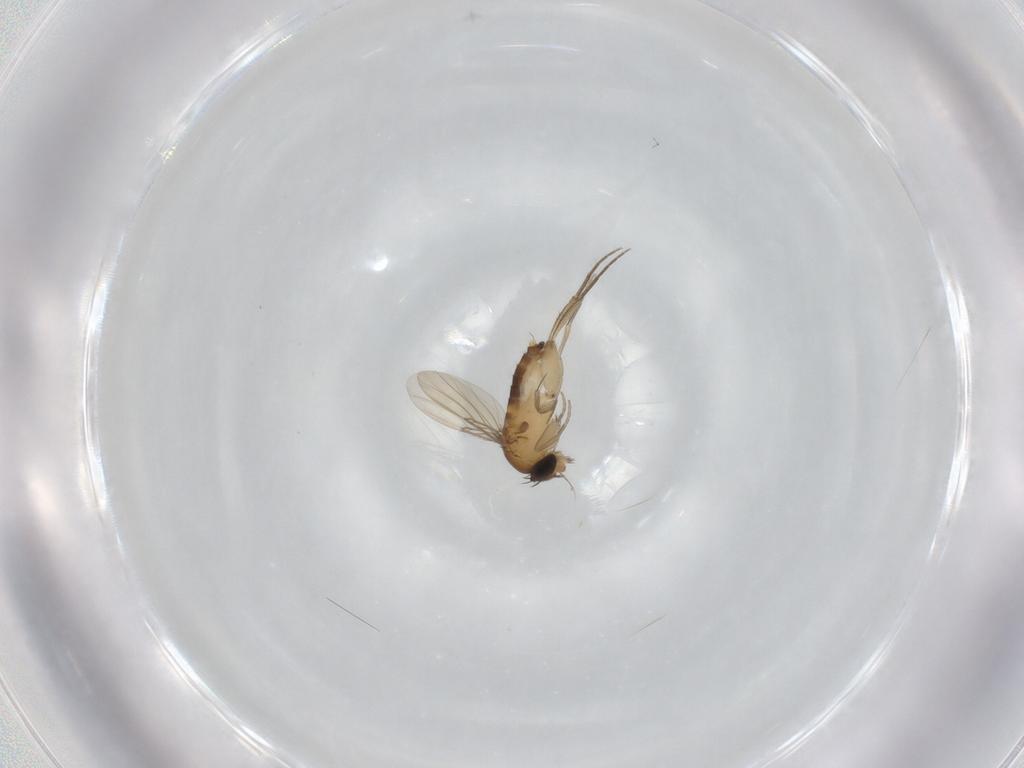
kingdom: Animalia
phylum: Arthropoda
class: Insecta
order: Diptera
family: Phoridae
